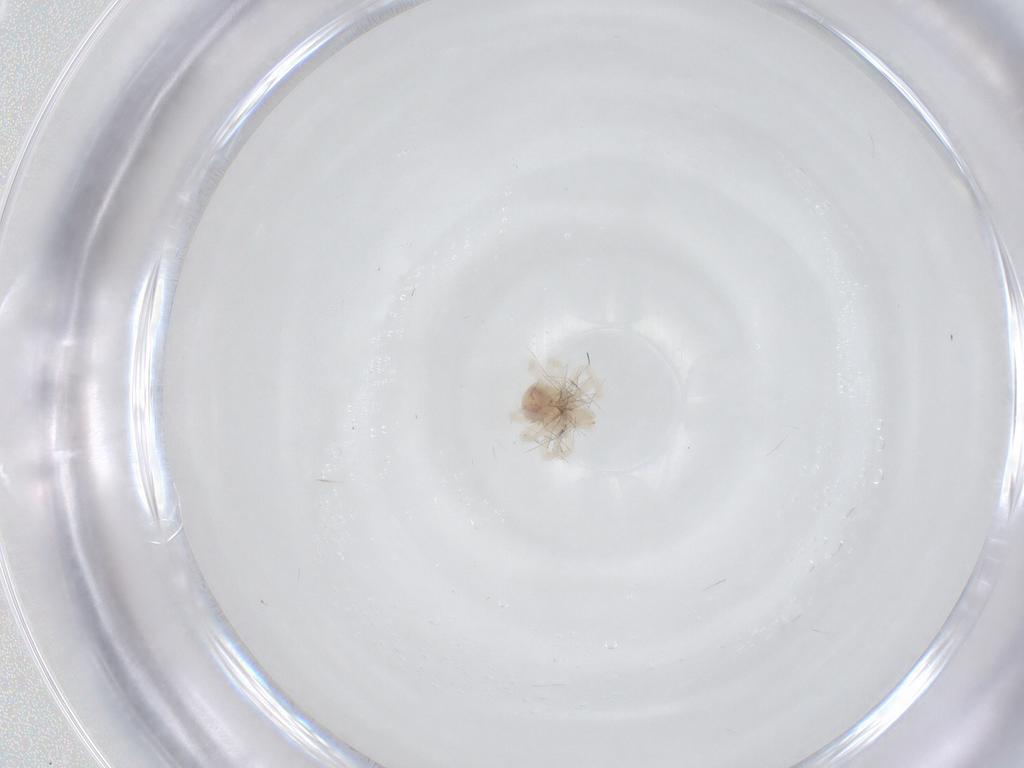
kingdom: Animalia
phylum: Arthropoda
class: Arachnida
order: Trombidiformes
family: Anystidae
